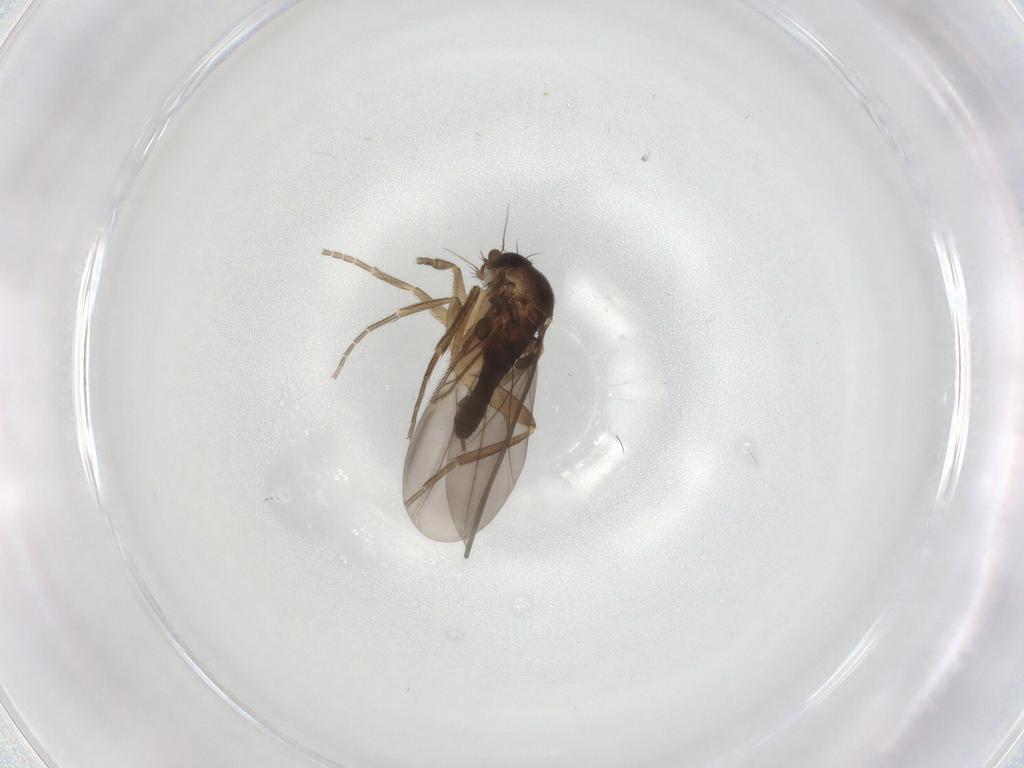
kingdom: Animalia
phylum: Arthropoda
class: Insecta
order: Diptera
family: Phoridae
